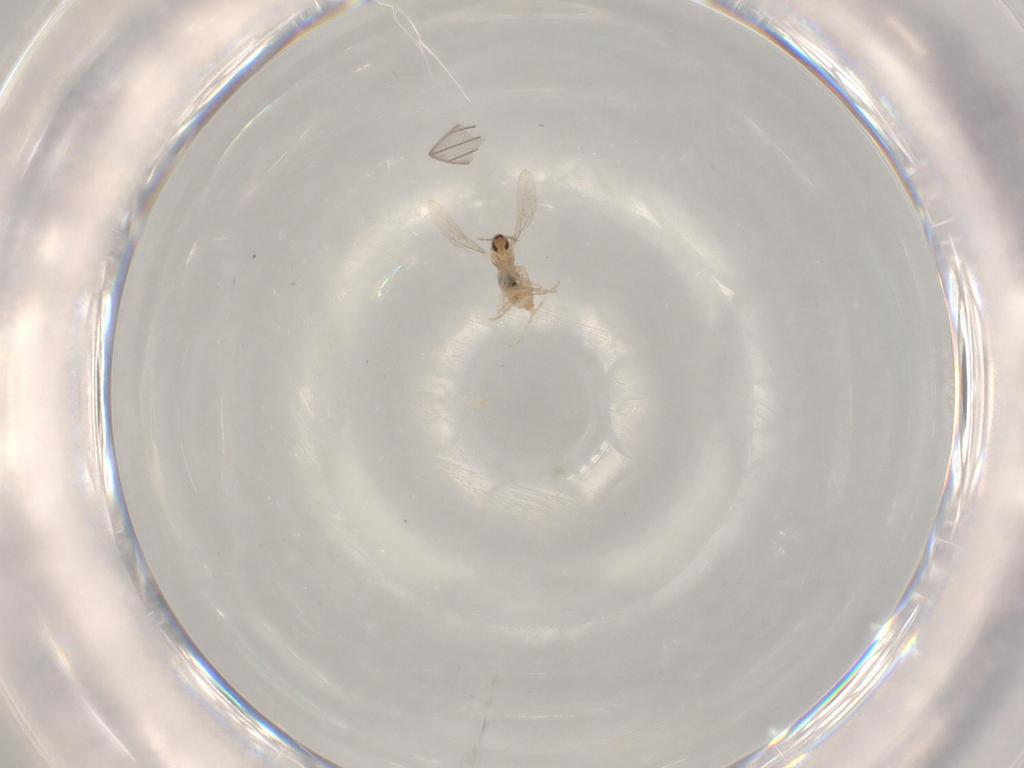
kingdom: Animalia
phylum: Arthropoda
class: Insecta
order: Diptera
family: Cecidomyiidae
